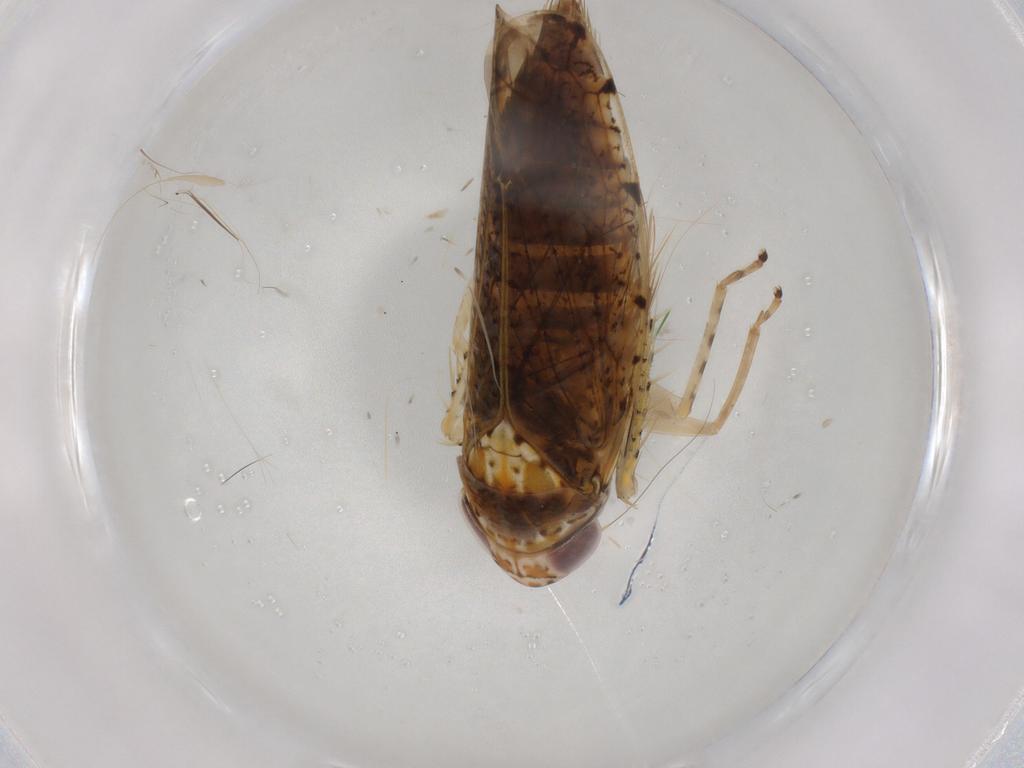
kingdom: Animalia
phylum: Arthropoda
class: Insecta
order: Hemiptera
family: Cicadellidae
